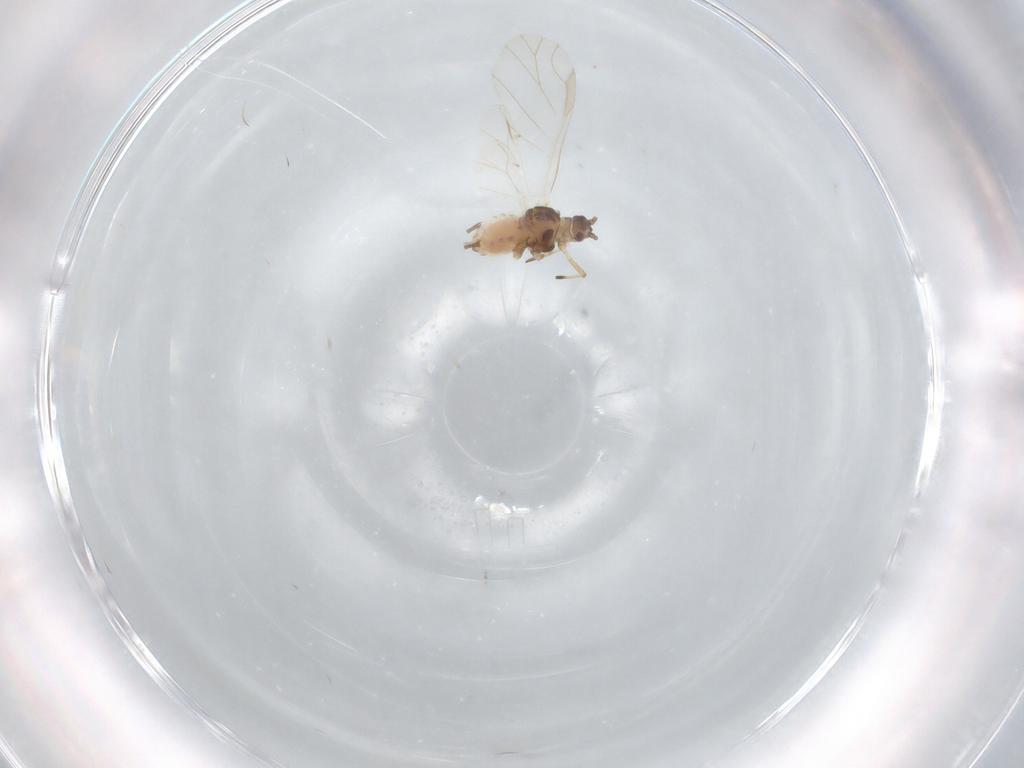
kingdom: Animalia
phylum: Arthropoda
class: Insecta
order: Hemiptera
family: Aphididae
